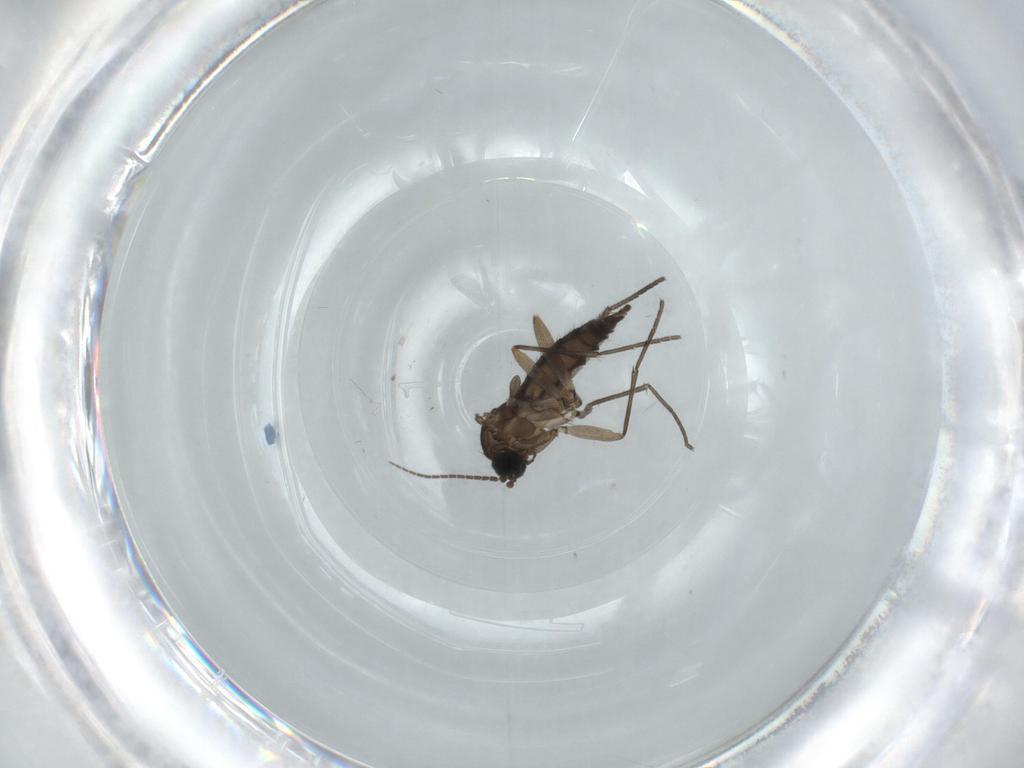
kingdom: Animalia
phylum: Arthropoda
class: Insecta
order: Diptera
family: Sciaridae
